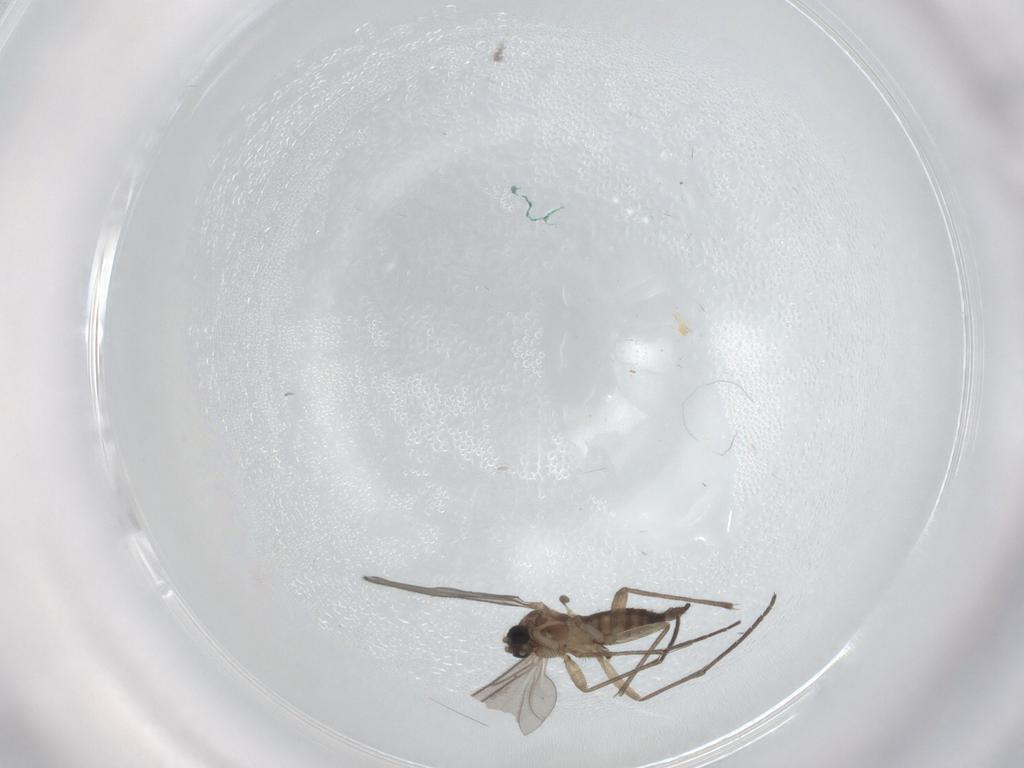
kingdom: Animalia
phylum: Arthropoda
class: Insecta
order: Diptera
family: Sciaridae
